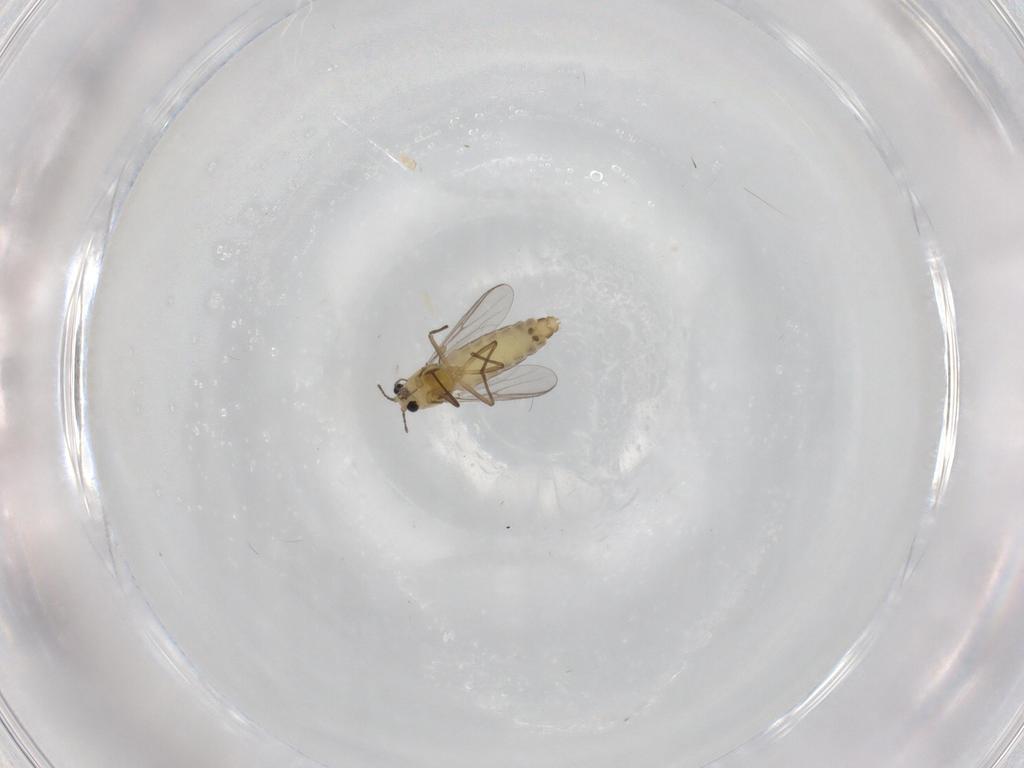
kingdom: Animalia
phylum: Arthropoda
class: Insecta
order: Diptera
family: Chironomidae
